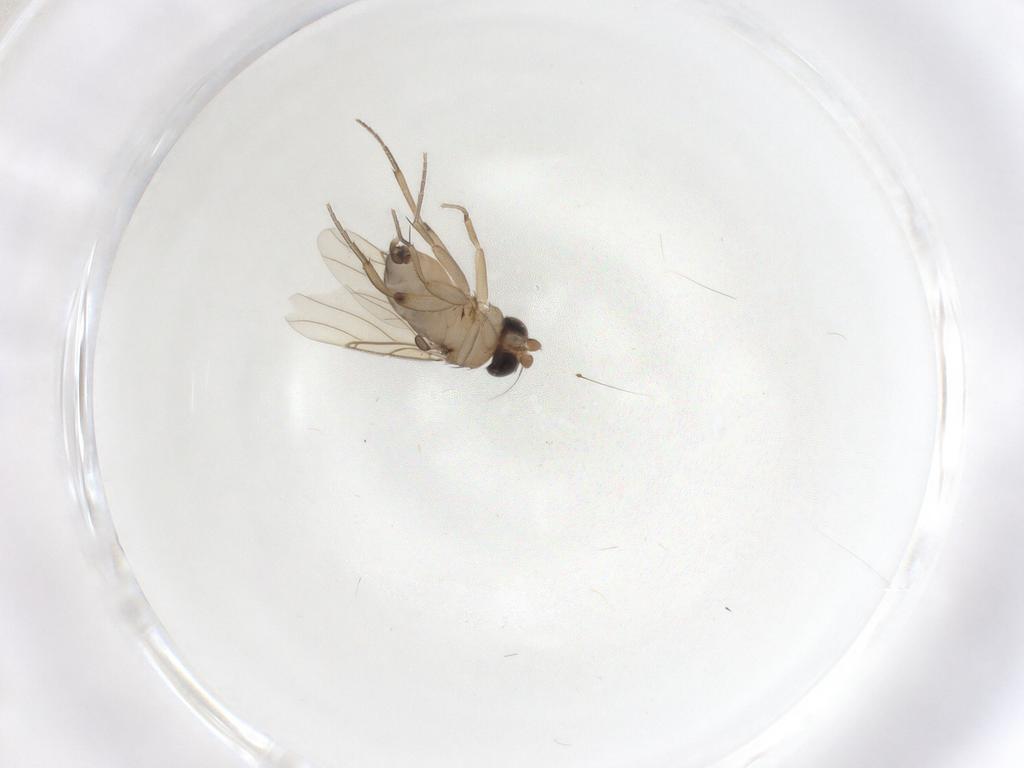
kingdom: Animalia
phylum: Arthropoda
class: Insecta
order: Diptera
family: Phoridae
